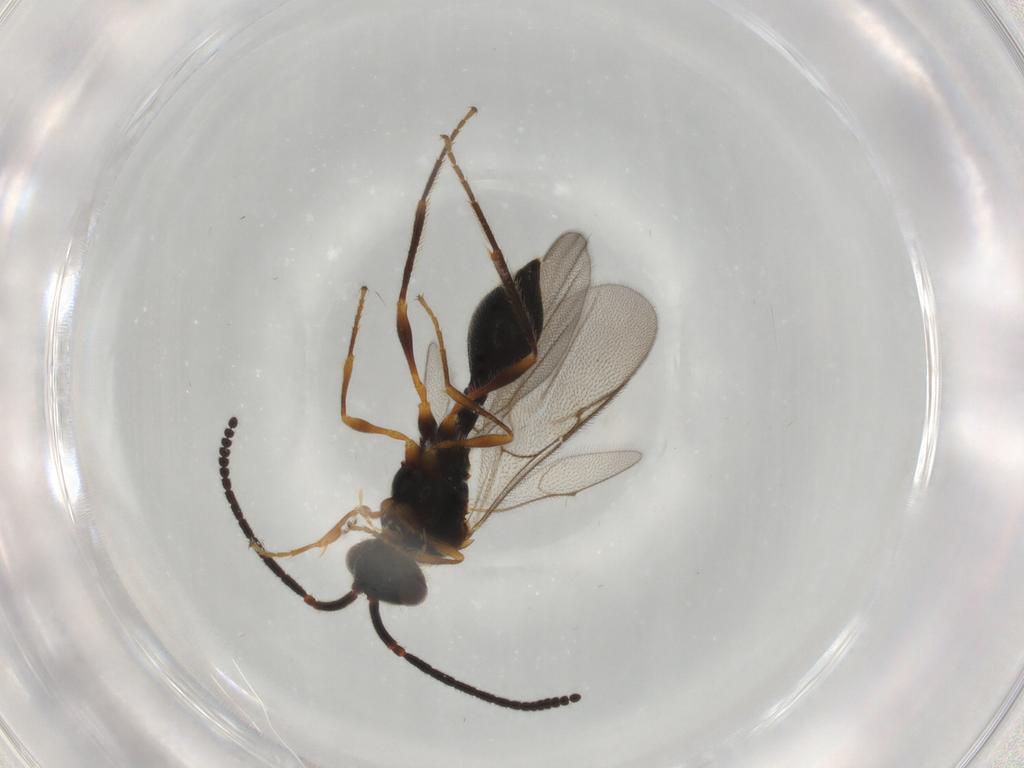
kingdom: Animalia
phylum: Arthropoda
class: Insecta
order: Hymenoptera
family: Diapriidae
